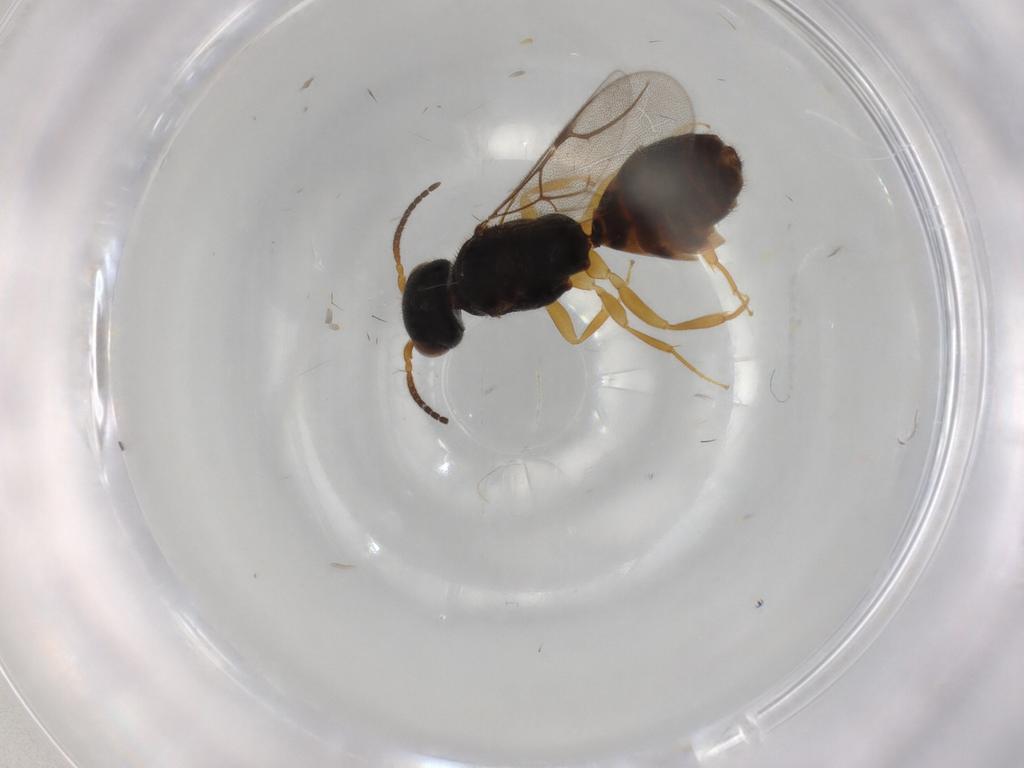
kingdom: Animalia
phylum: Arthropoda
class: Insecta
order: Hymenoptera
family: Bethylidae
